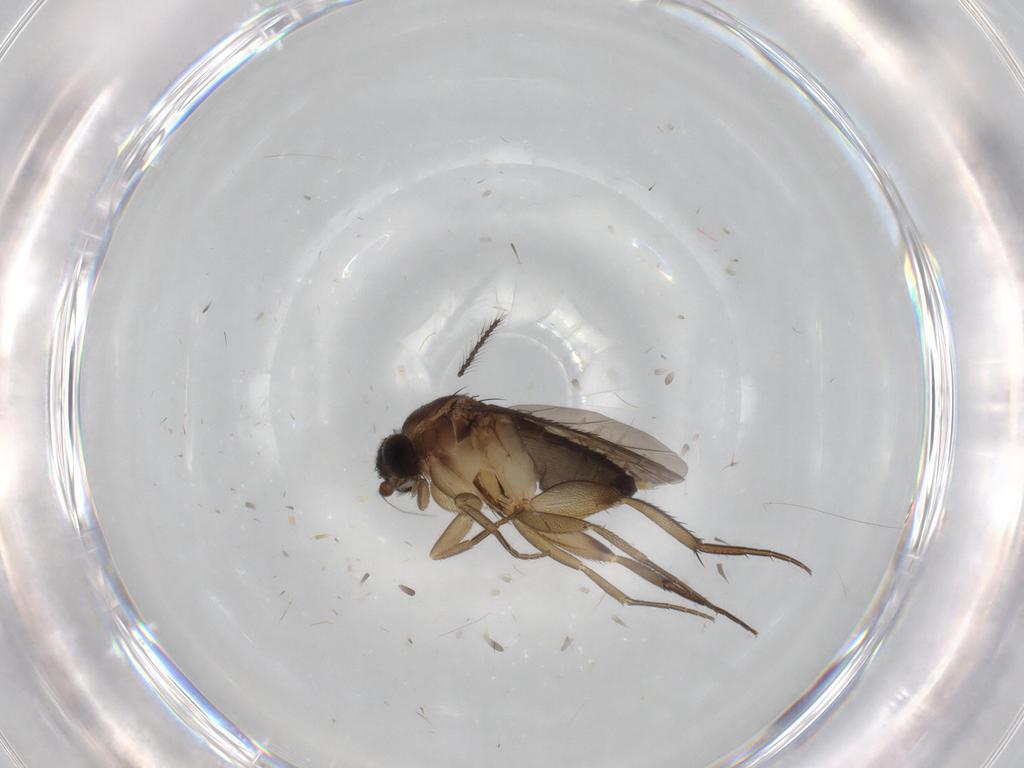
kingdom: Animalia
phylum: Arthropoda
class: Insecta
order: Diptera
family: Phoridae
